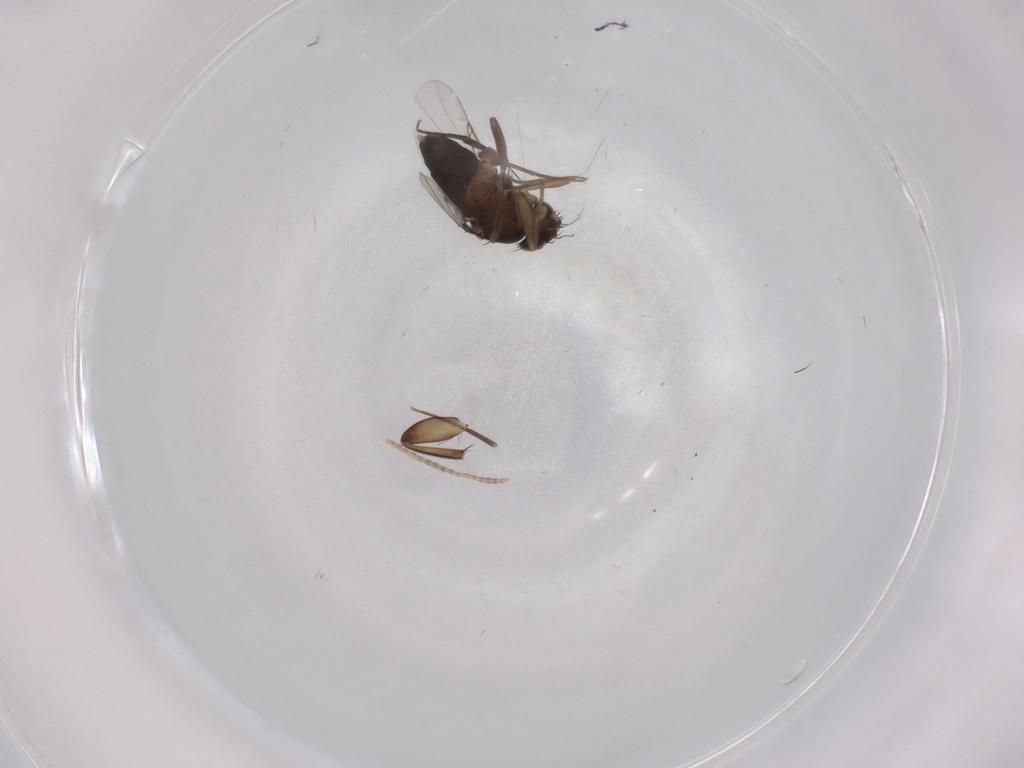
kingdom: Animalia
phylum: Arthropoda
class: Insecta
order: Diptera
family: Phoridae
